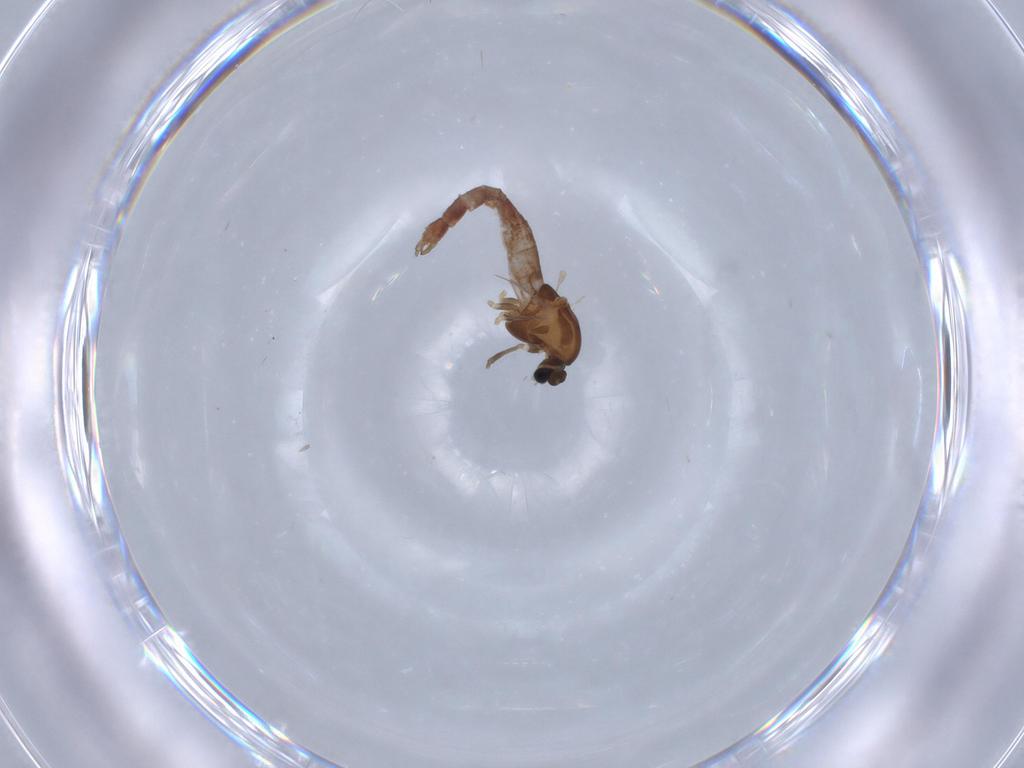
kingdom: Animalia
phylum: Arthropoda
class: Insecta
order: Diptera
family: Chironomidae
